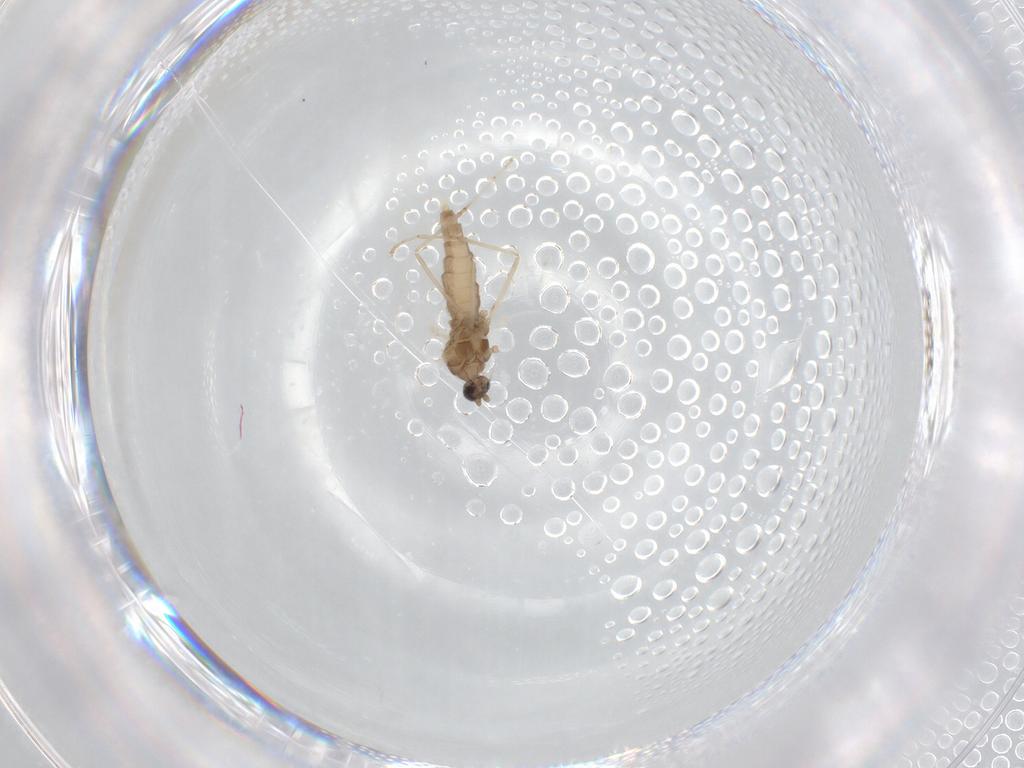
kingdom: Animalia
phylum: Arthropoda
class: Insecta
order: Diptera
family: Cecidomyiidae
